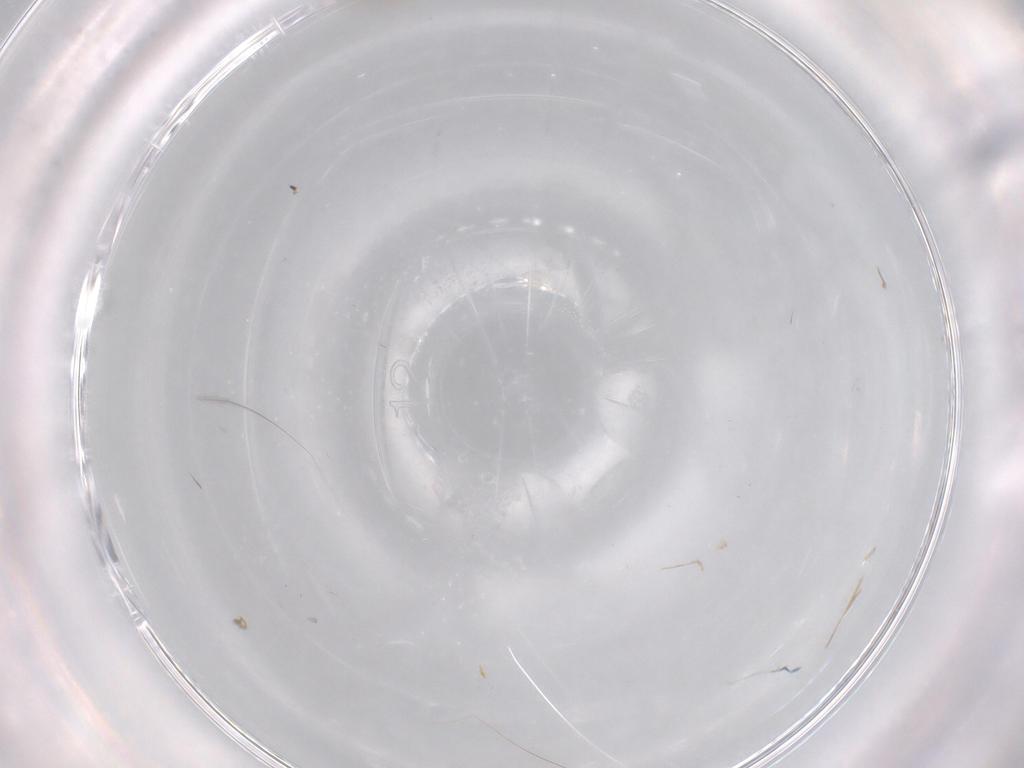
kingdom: Animalia
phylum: Arthropoda
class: Insecta
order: Diptera
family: Cecidomyiidae
